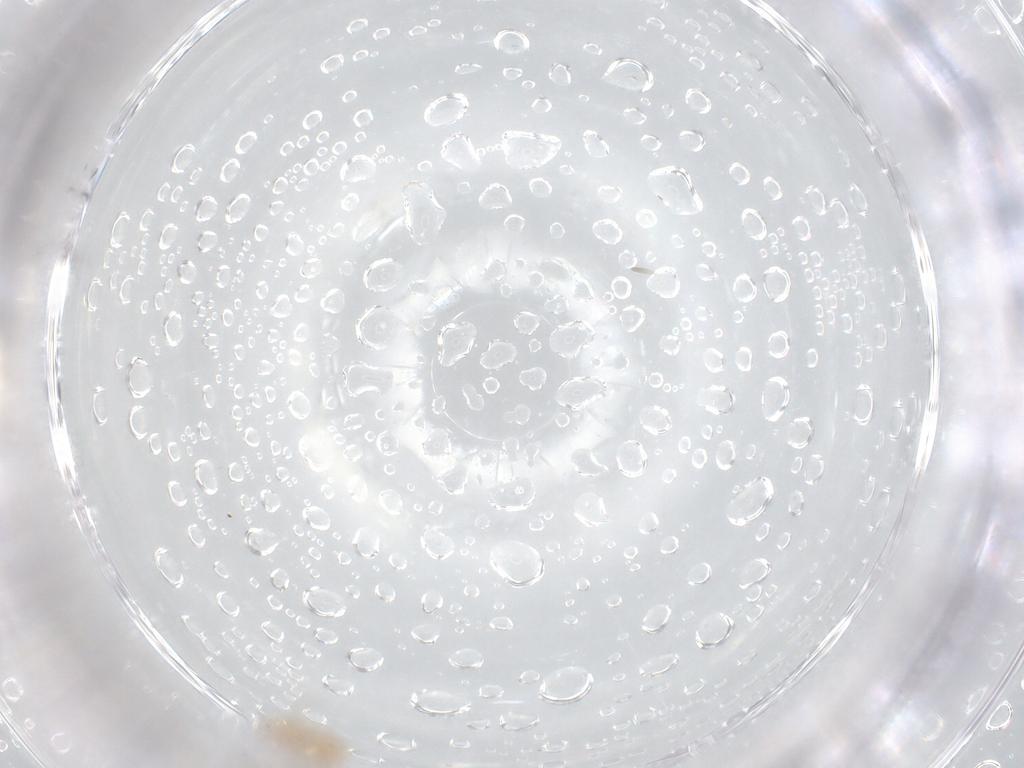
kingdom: Animalia
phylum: Arthropoda
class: Insecta
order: Hymenoptera
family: Mymaridae
